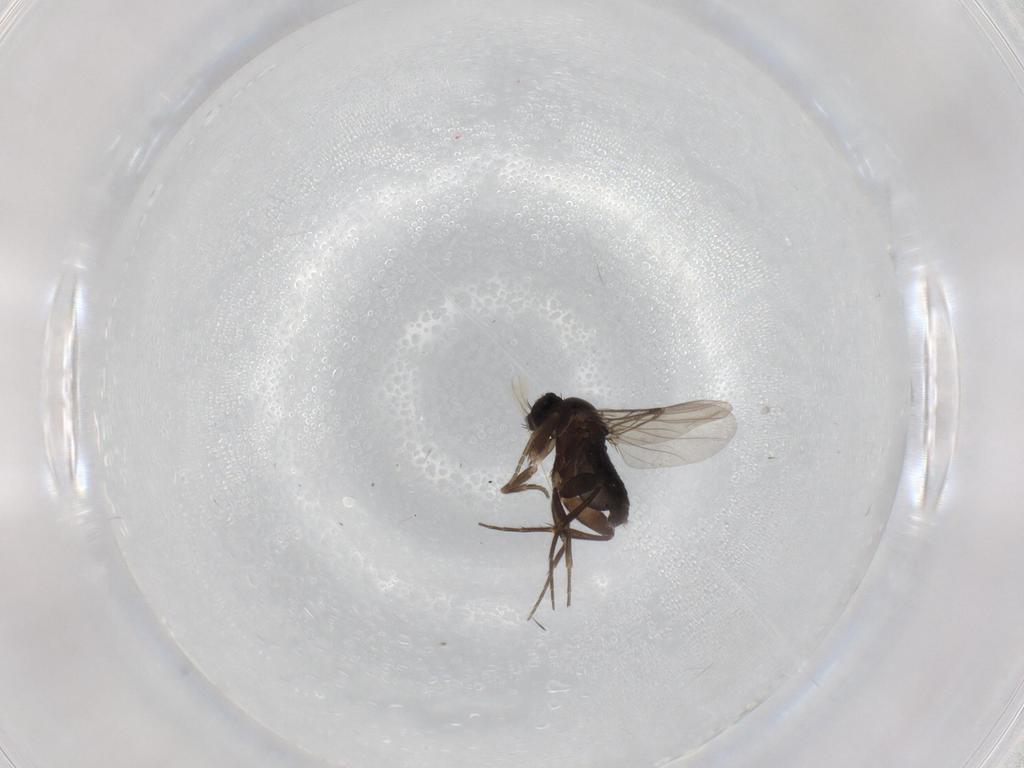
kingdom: Animalia
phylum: Arthropoda
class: Insecta
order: Diptera
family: Phoridae
